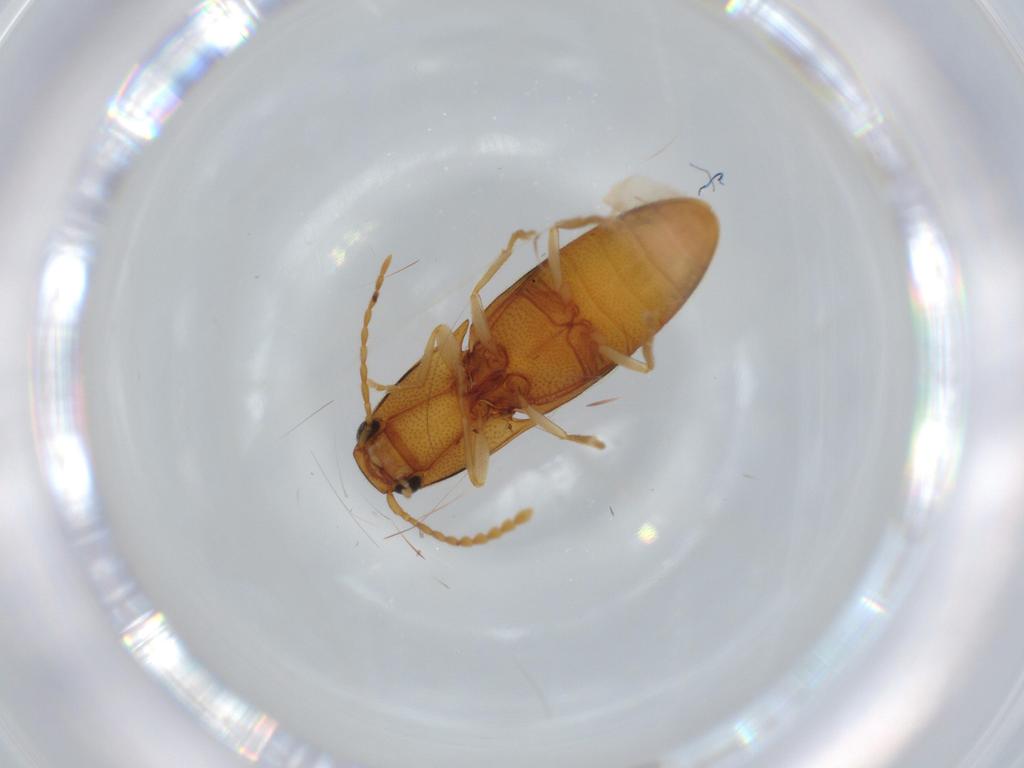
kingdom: Animalia
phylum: Arthropoda
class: Insecta
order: Coleoptera
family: Elateridae
